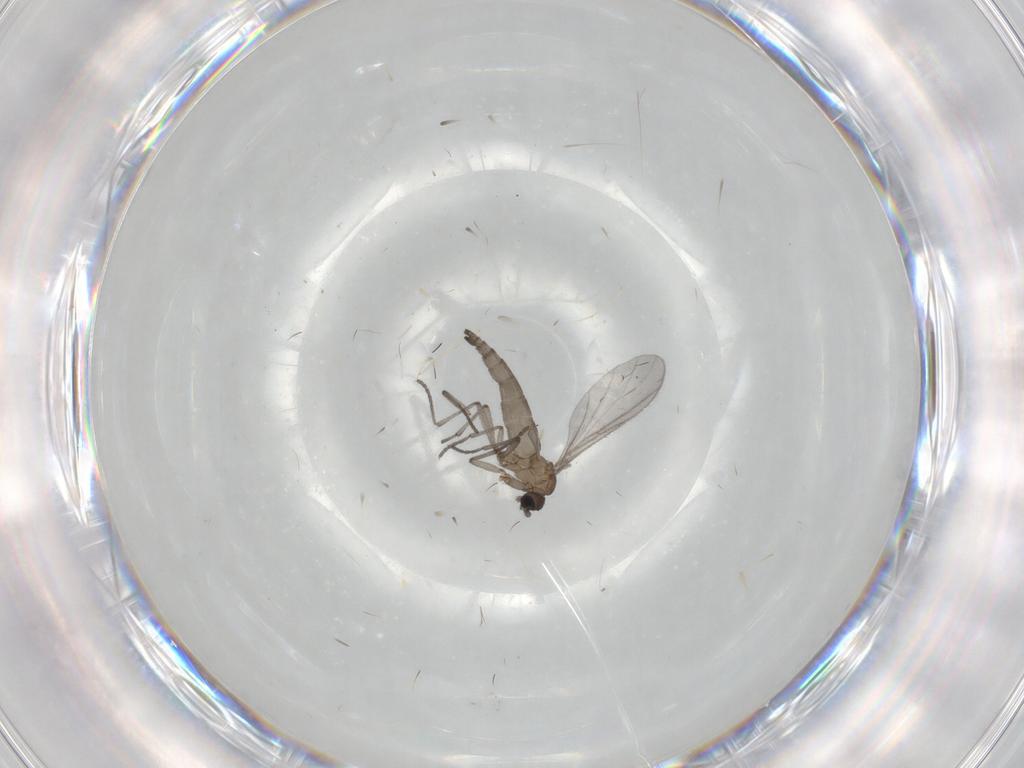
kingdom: Animalia
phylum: Arthropoda
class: Insecta
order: Diptera
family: Sciaridae
